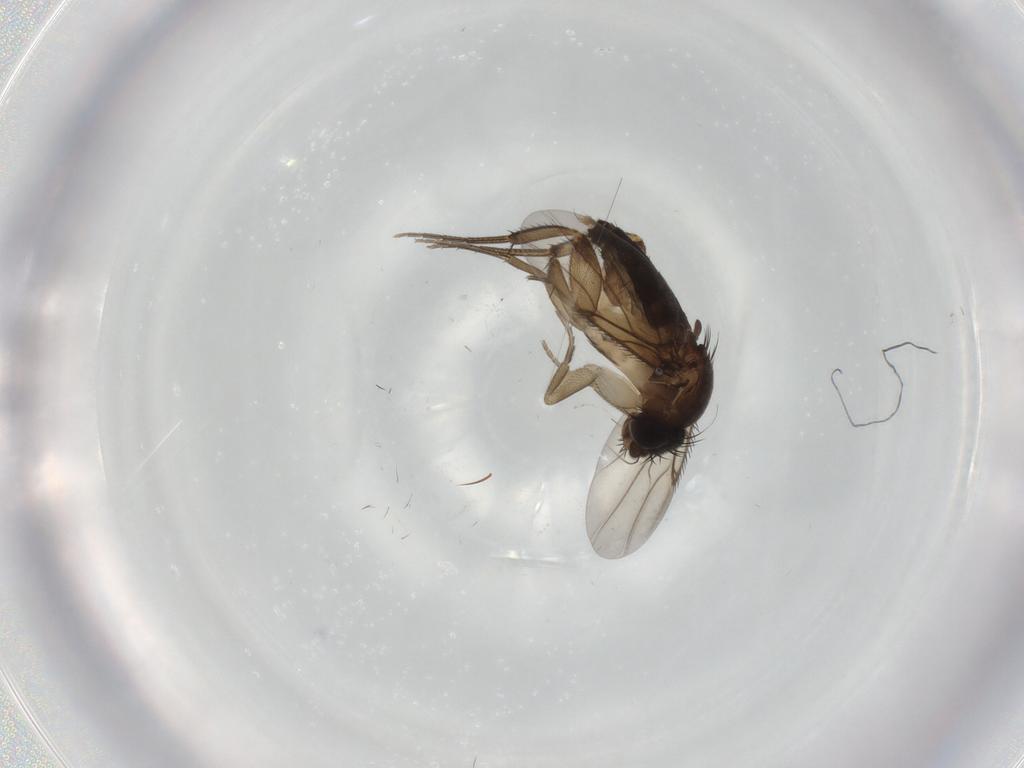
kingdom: Animalia
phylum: Arthropoda
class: Insecta
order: Diptera
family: Phoridae
